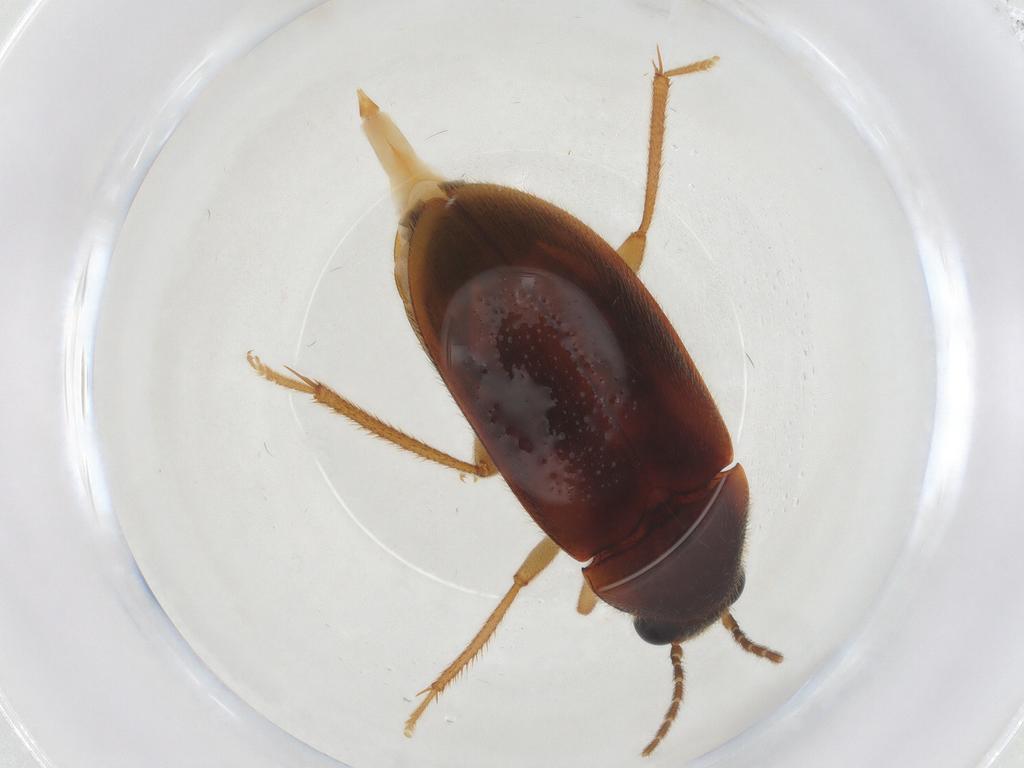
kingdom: Animalia
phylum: Arthropoda
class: Insecta
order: Coleoptera
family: Ptilodactylidae
